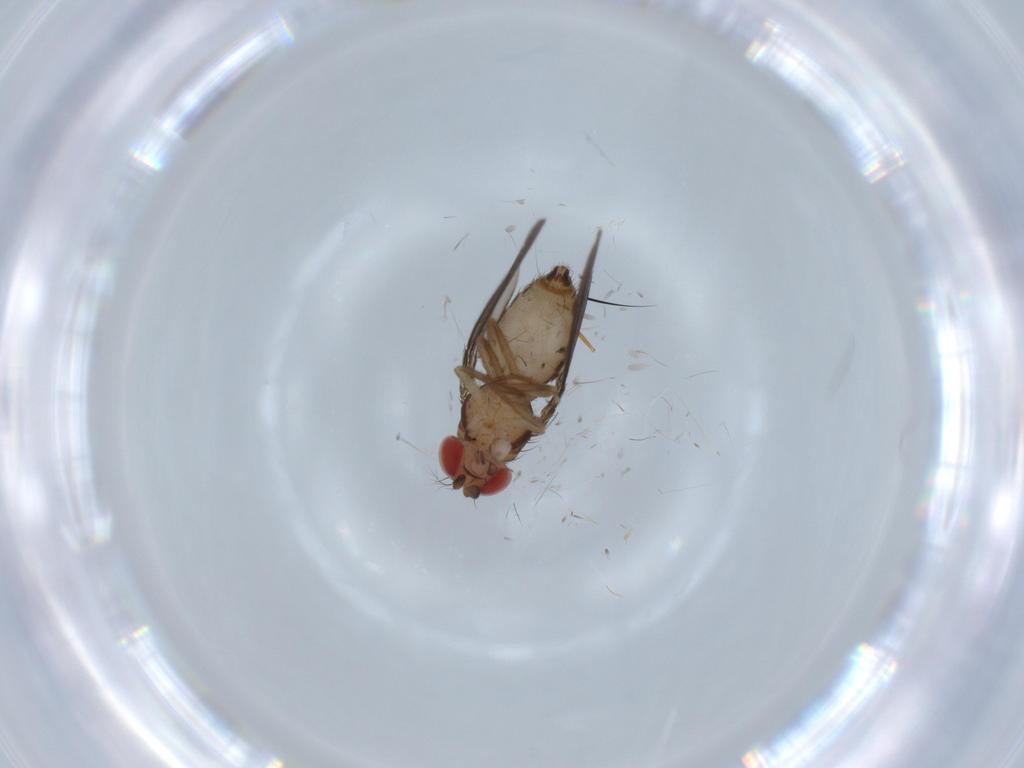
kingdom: Animalia
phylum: Arthropoda
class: Insecta
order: Diptera
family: Drosophilidae
